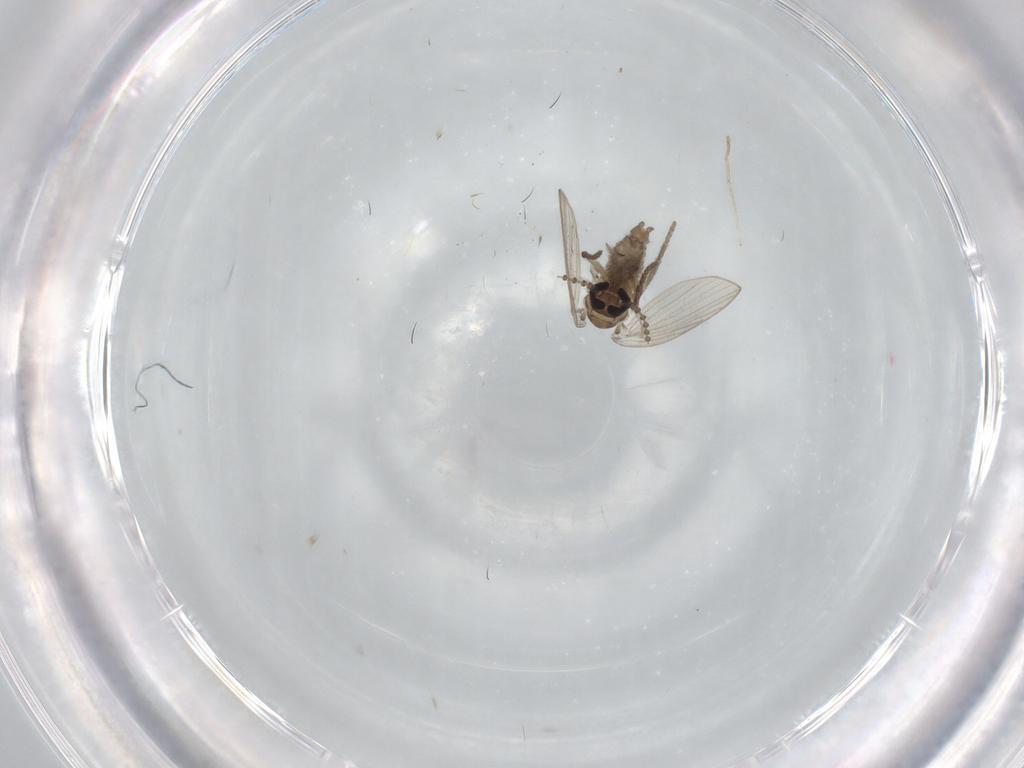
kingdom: Animalia
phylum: Arthropoda
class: Insecta
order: Diptera
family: Psychodidae
